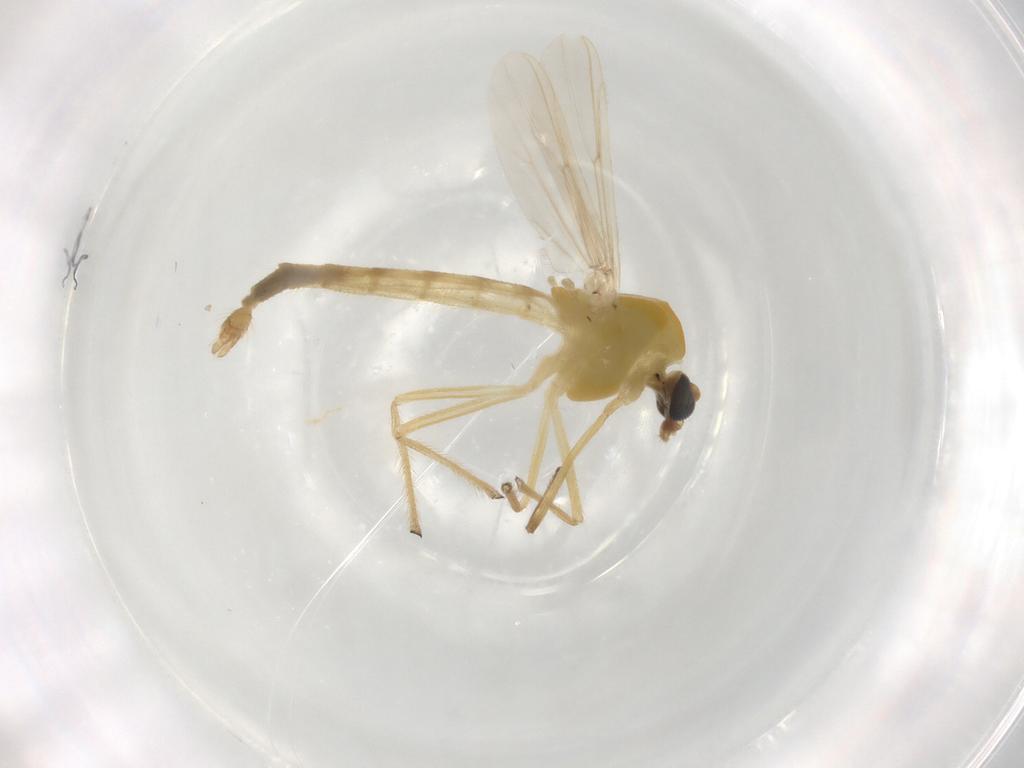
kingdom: Animalia
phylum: Arthropoda
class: Insecta
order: Diptera
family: Chironomidae
